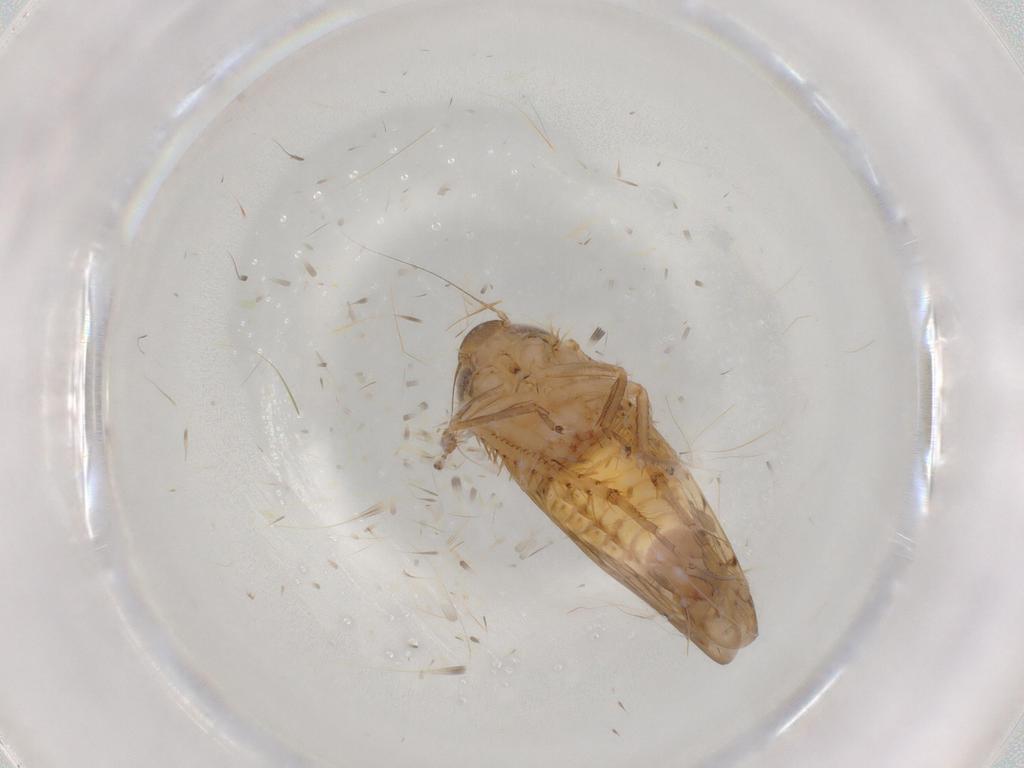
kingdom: Animalia
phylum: Arthropoda
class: Insecta
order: Hemiptera
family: Cicadellidae
